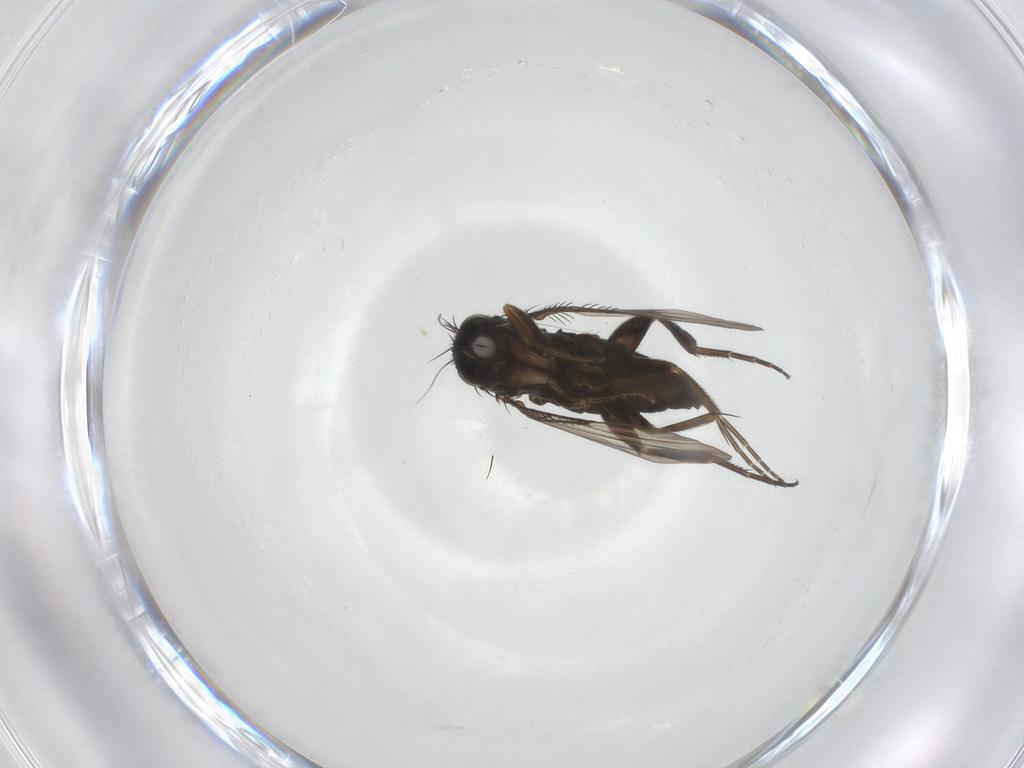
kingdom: Animalia
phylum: Arthropoda
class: Insecta
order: Diptera
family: Phoridae
